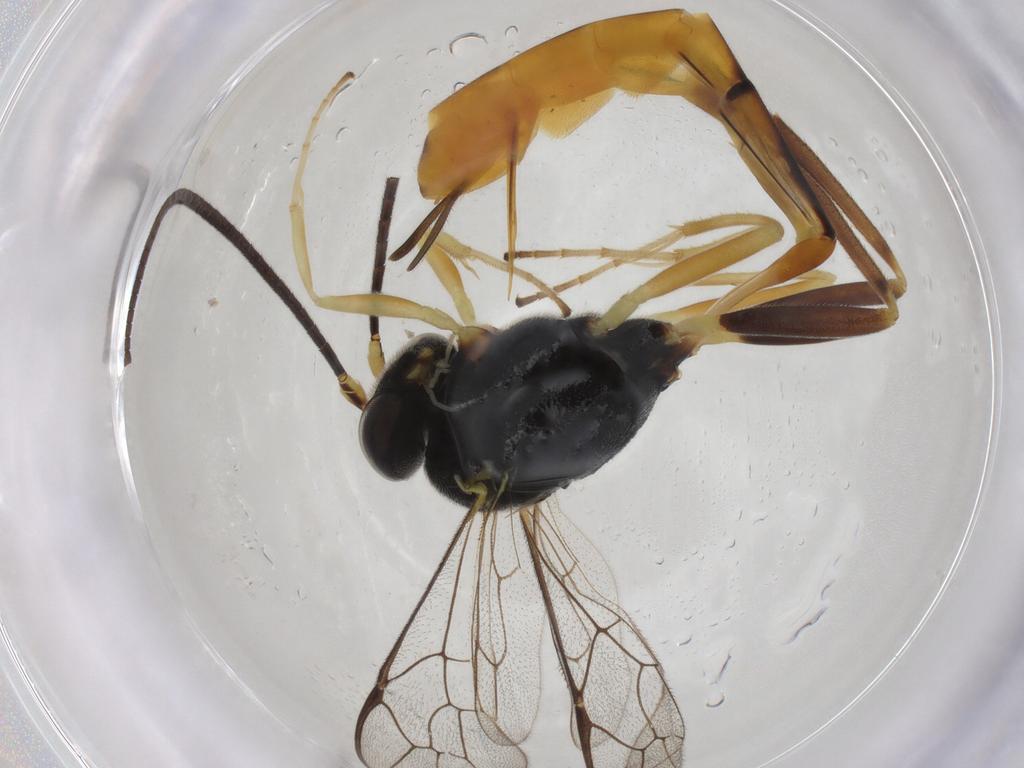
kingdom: Animalia
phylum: Arthropoda
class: Insecta
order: Hymenoptera
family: Ichneumonidae
